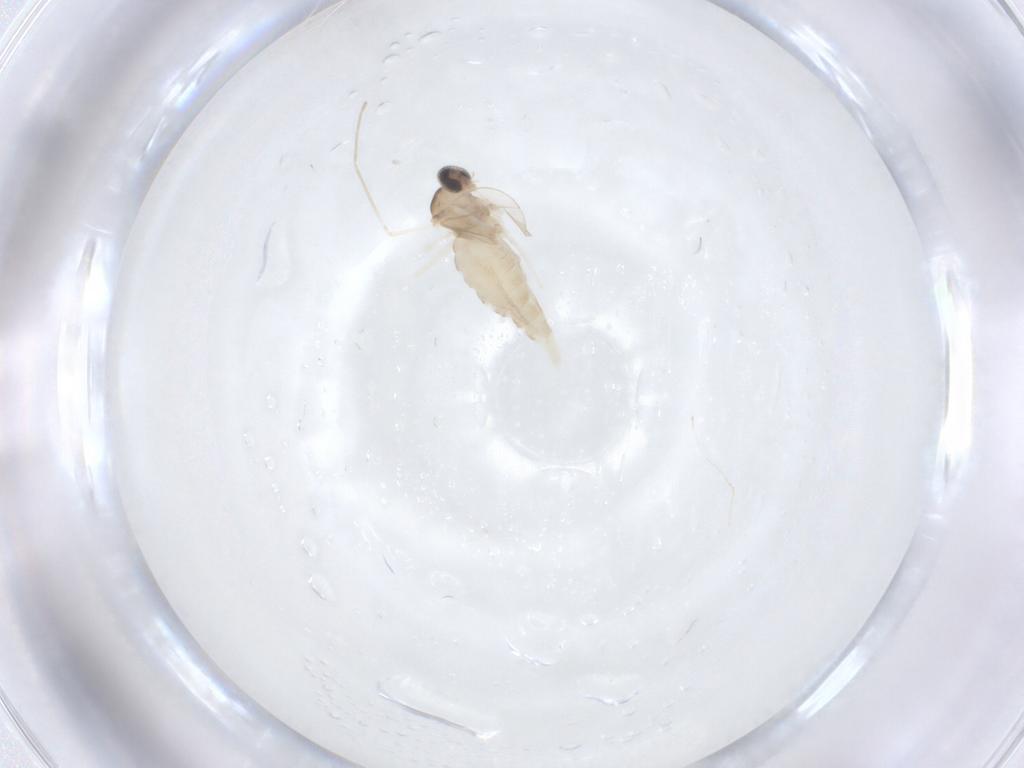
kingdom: Animalia
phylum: Arthropoda
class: Insecta
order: Diptera
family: Cecidomyiidae
